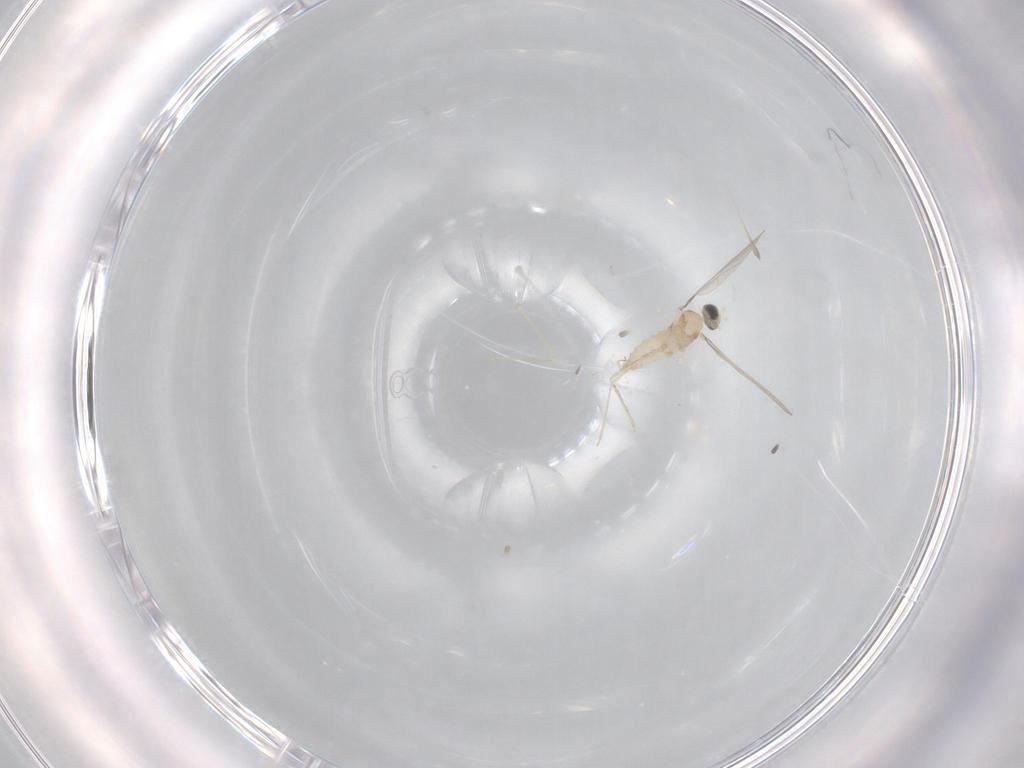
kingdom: Animalia
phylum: Arthropoda
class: Insecta
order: Diptera
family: Cecidomyiidae
